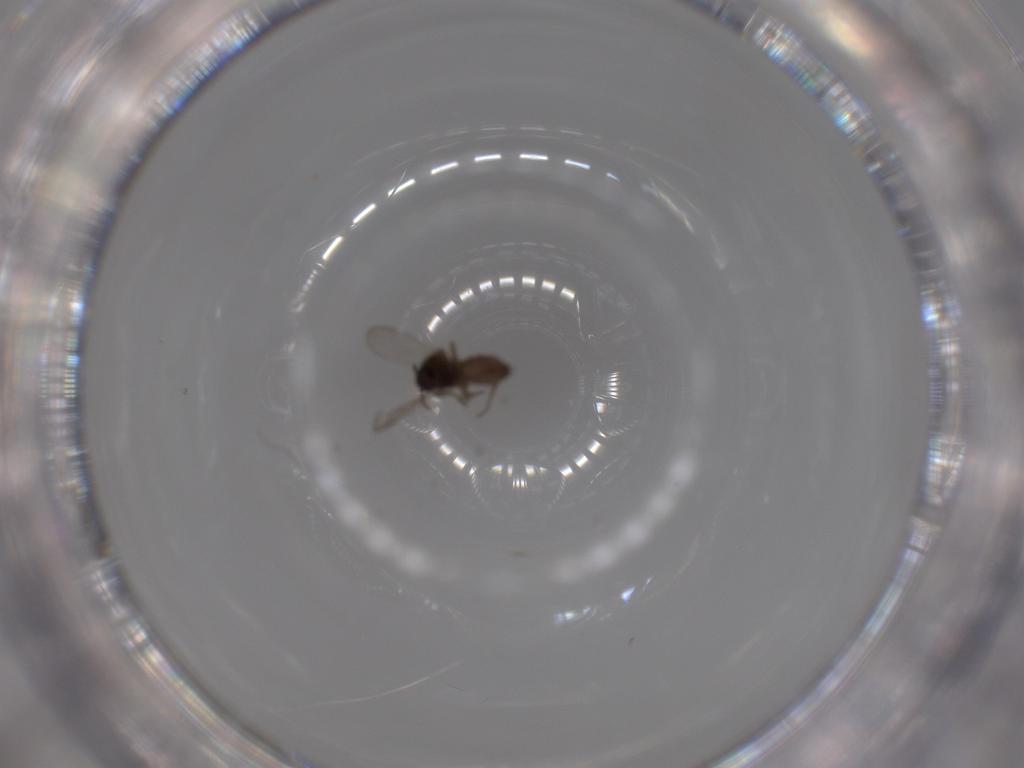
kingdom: Animalia
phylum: Arthropoda
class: Insecta
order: Diptera
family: Ceratopogonidae
